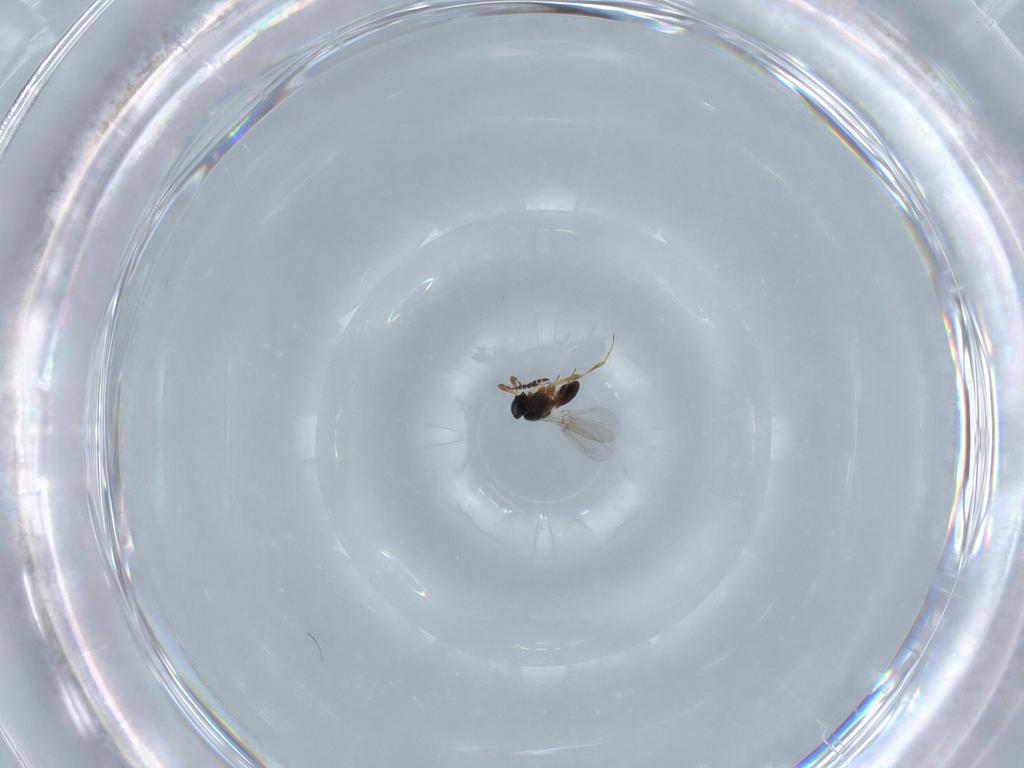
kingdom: Animalia
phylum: Arthropoda
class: Insecta
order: Hymenoptera
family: Platygastridae
